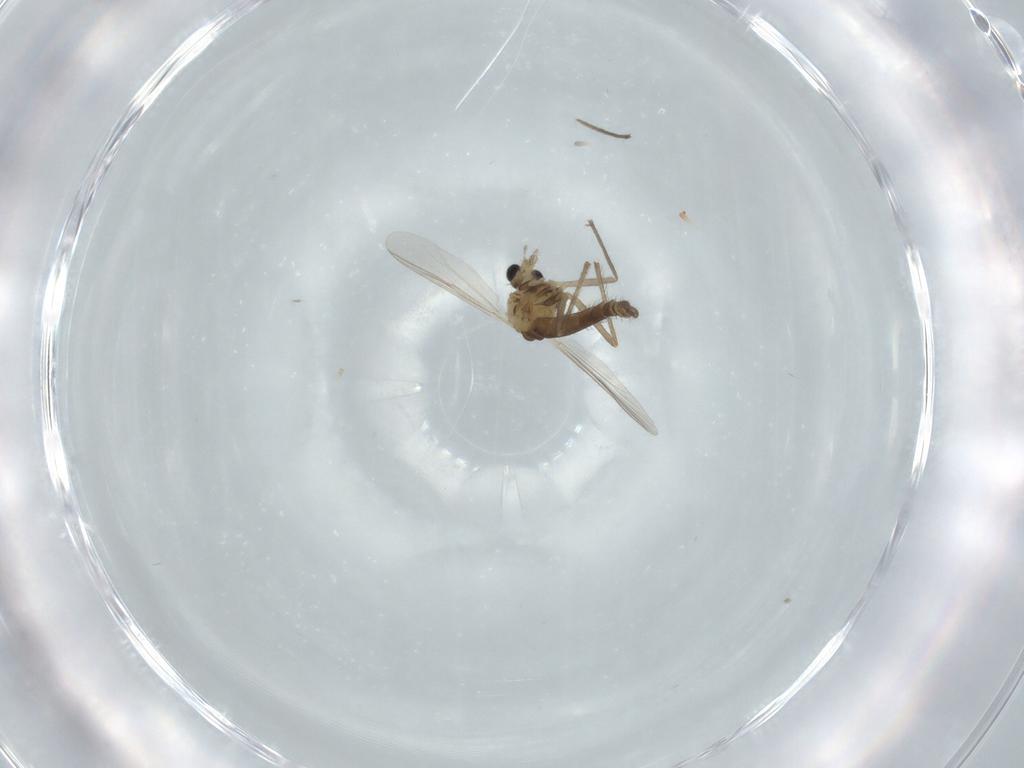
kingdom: Animalia
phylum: Arthropoda
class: Insecta
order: Diptera
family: Chironomidae
